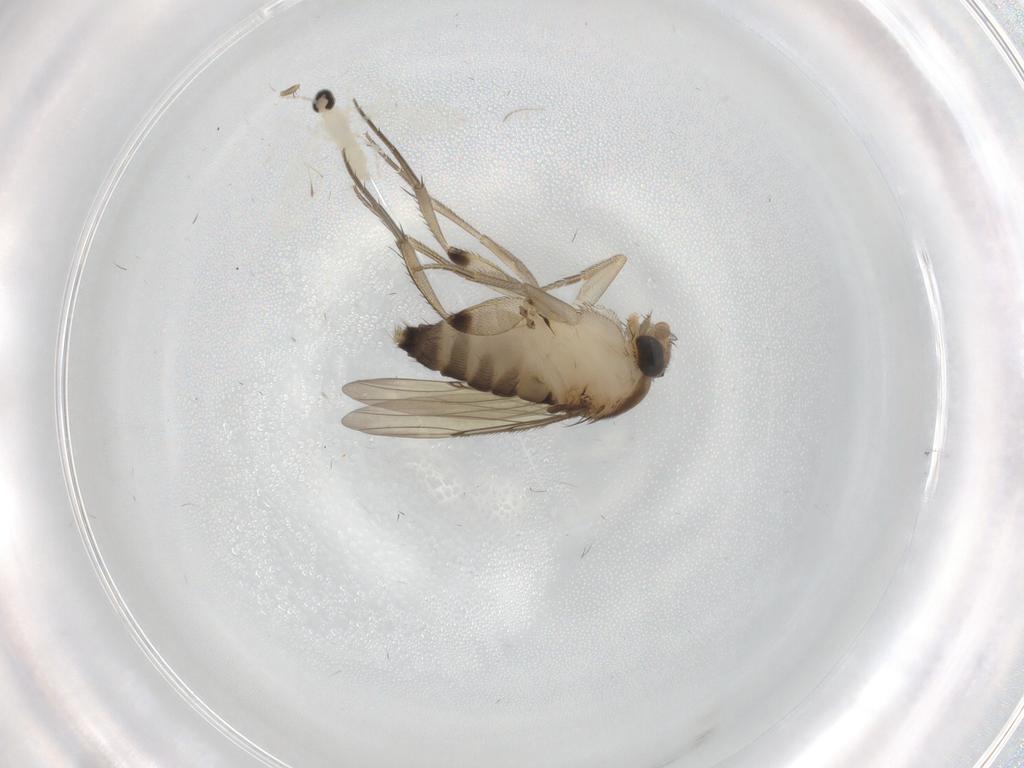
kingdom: Animalia
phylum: Arthropoda
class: Insecta
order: Diptera
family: Phoridae
